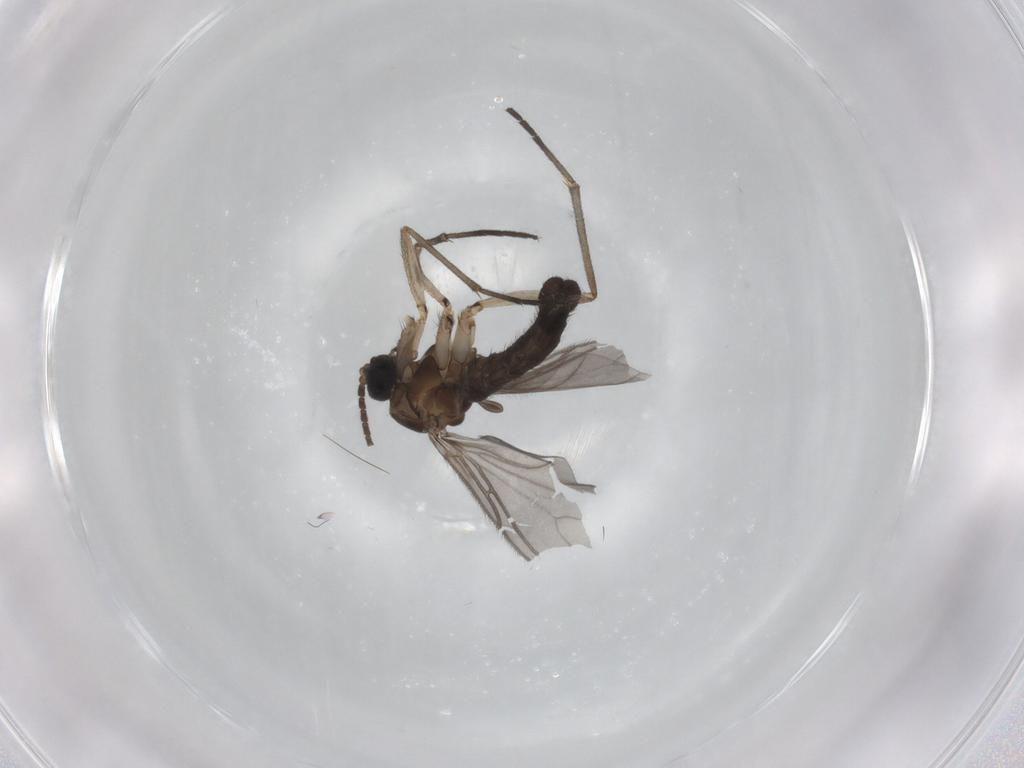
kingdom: Animalia
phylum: Arthropoda
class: Insecta
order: Diptera
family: Sciaridae
